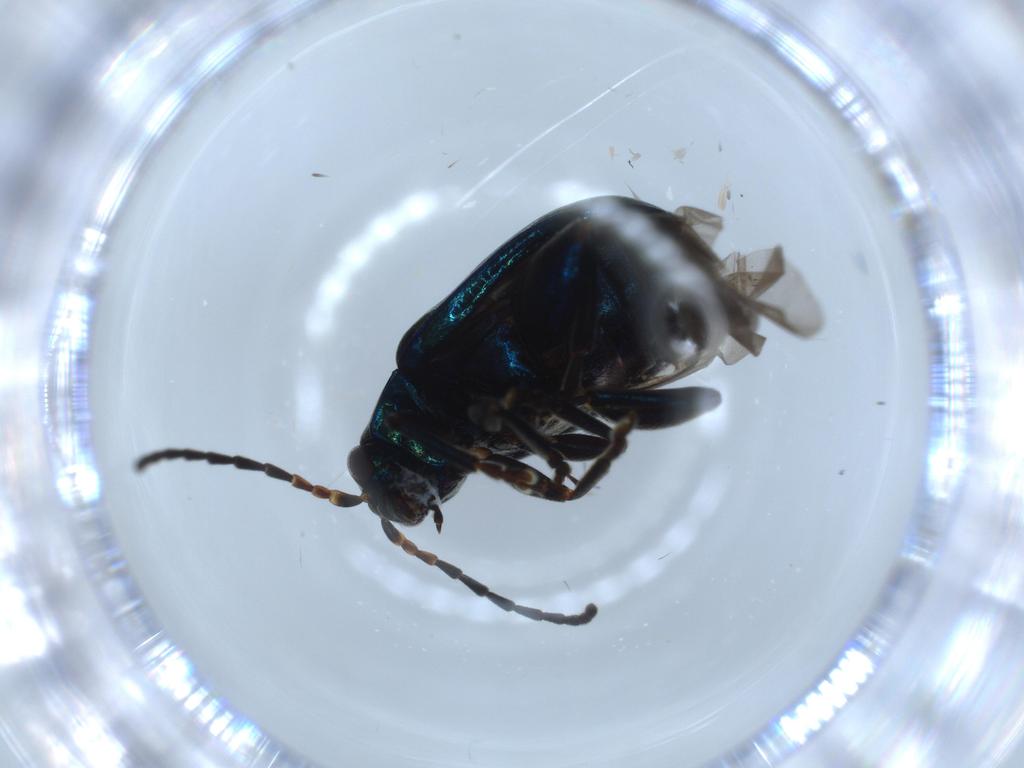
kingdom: Animalia
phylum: Arthropoda
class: Insecta
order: Coleoptera
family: Chrysomelidae
